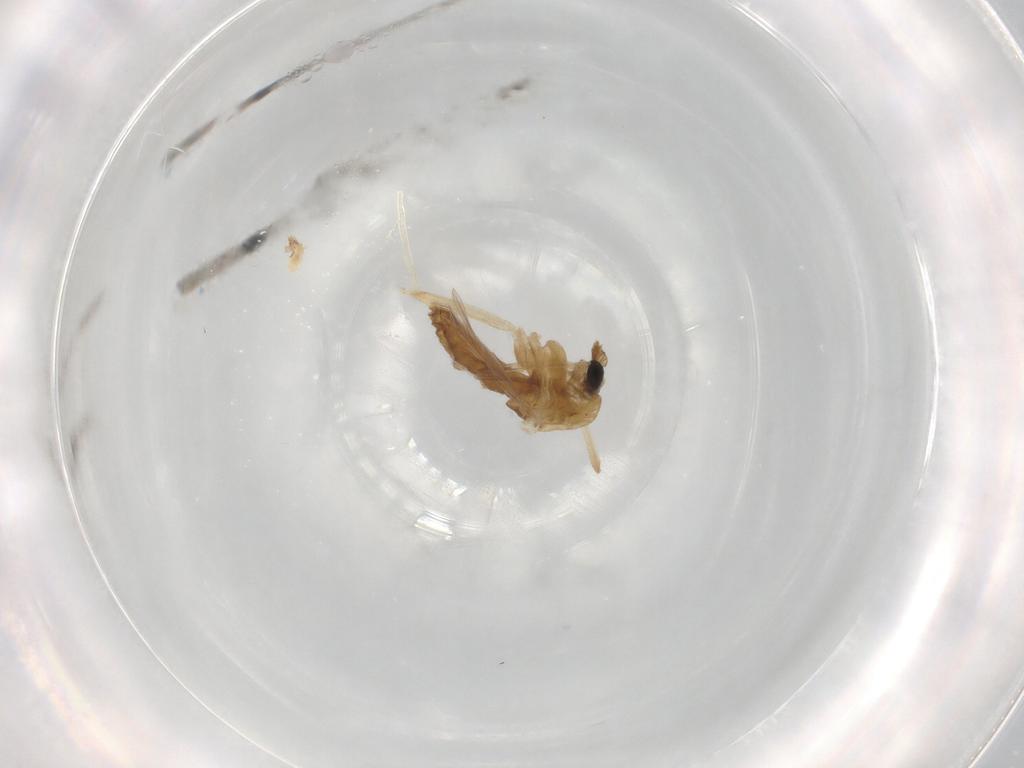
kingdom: Animalia
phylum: Arthropoda
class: Insecta
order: Diptera
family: Chironomidae
